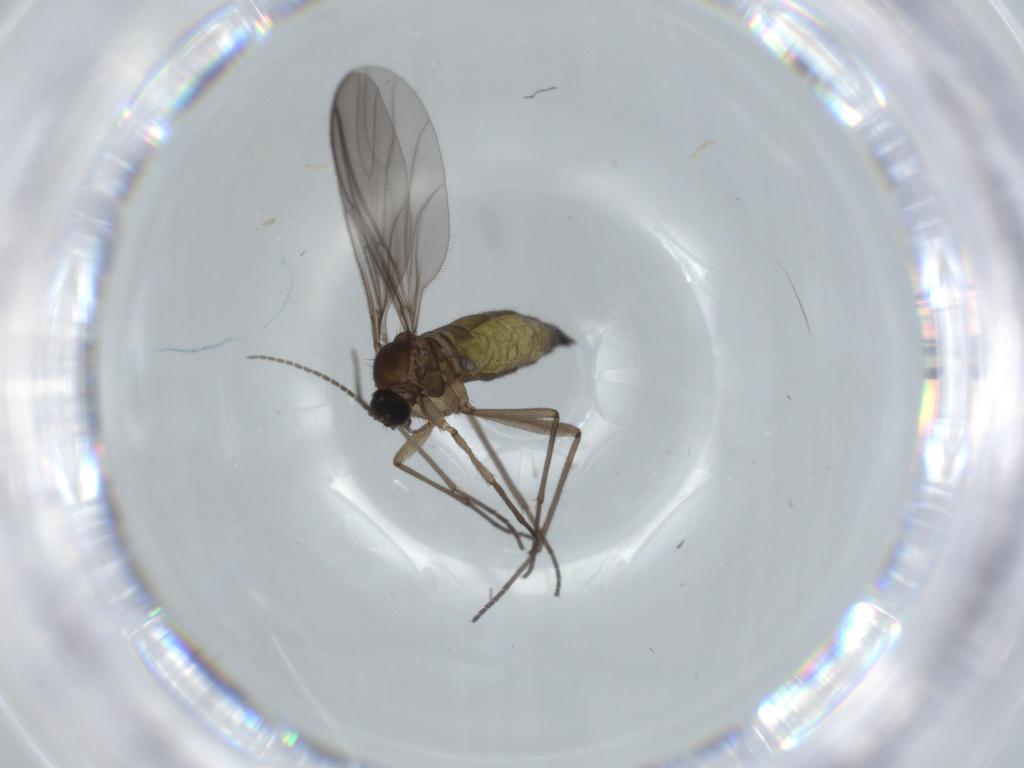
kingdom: Animalia
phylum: Arthropoda
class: Insecta
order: Diptera
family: Sciaridae
